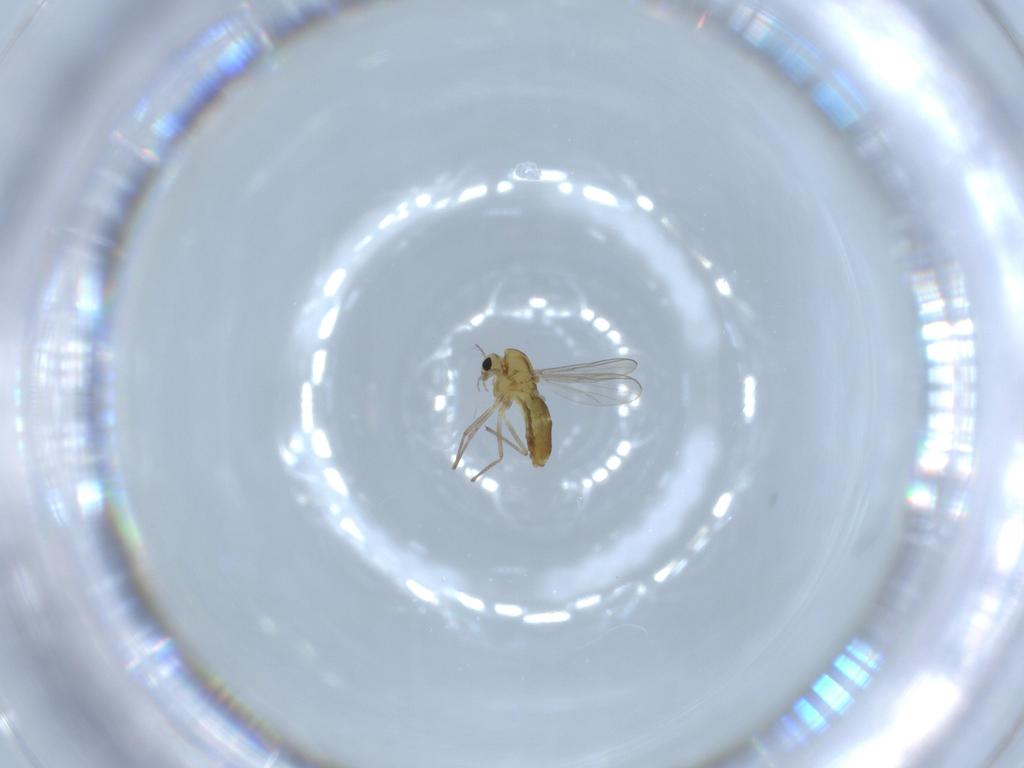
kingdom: Animalia
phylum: Arthropoda
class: Insecta
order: Diptera
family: Chironomidae
